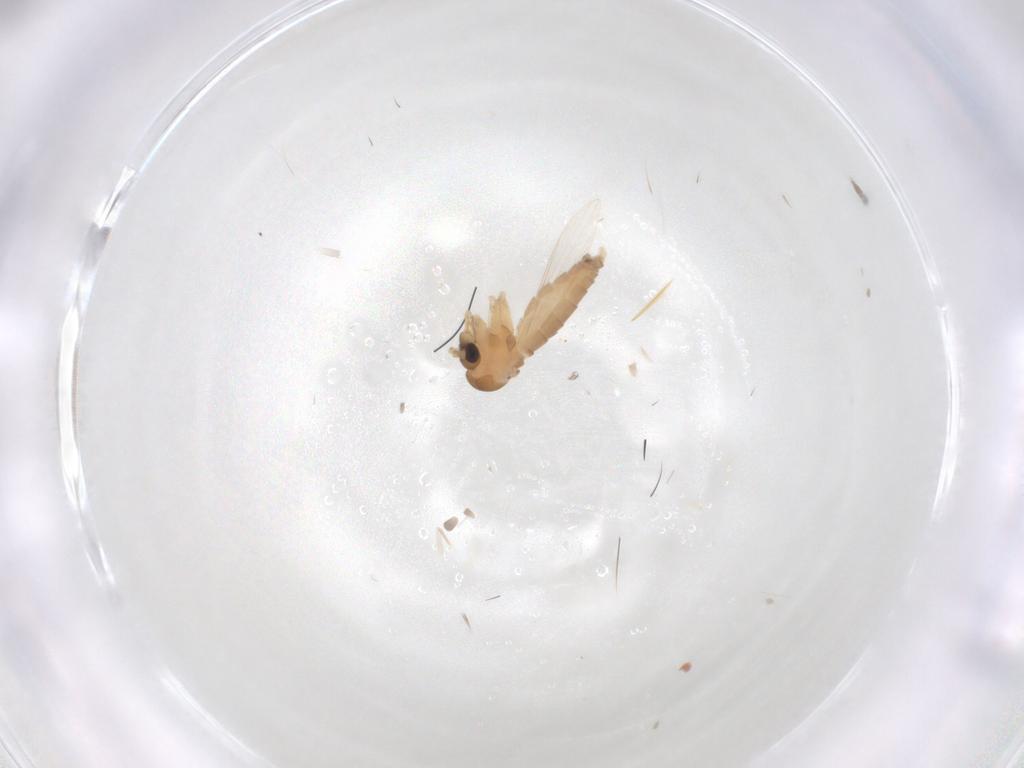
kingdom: Animalia
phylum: Arthropoda
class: Insecta
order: Diptera
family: Psychodidae
